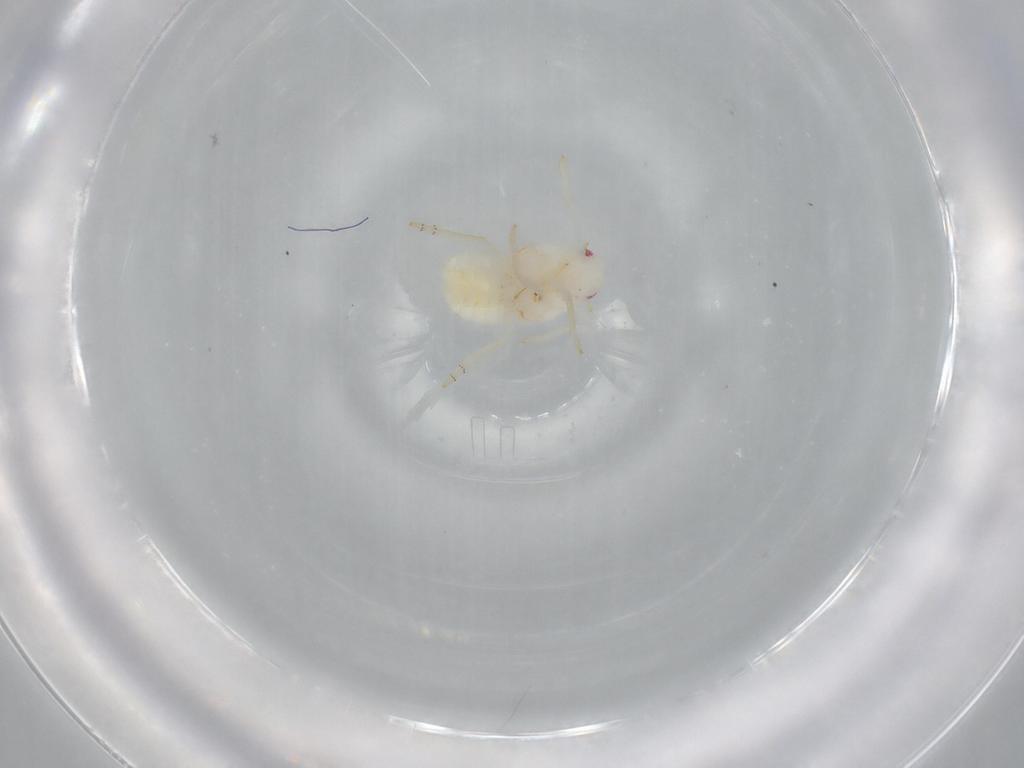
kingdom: Animalia
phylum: Arthropoda
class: Insecta
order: Hemiptera
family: Flatidae
